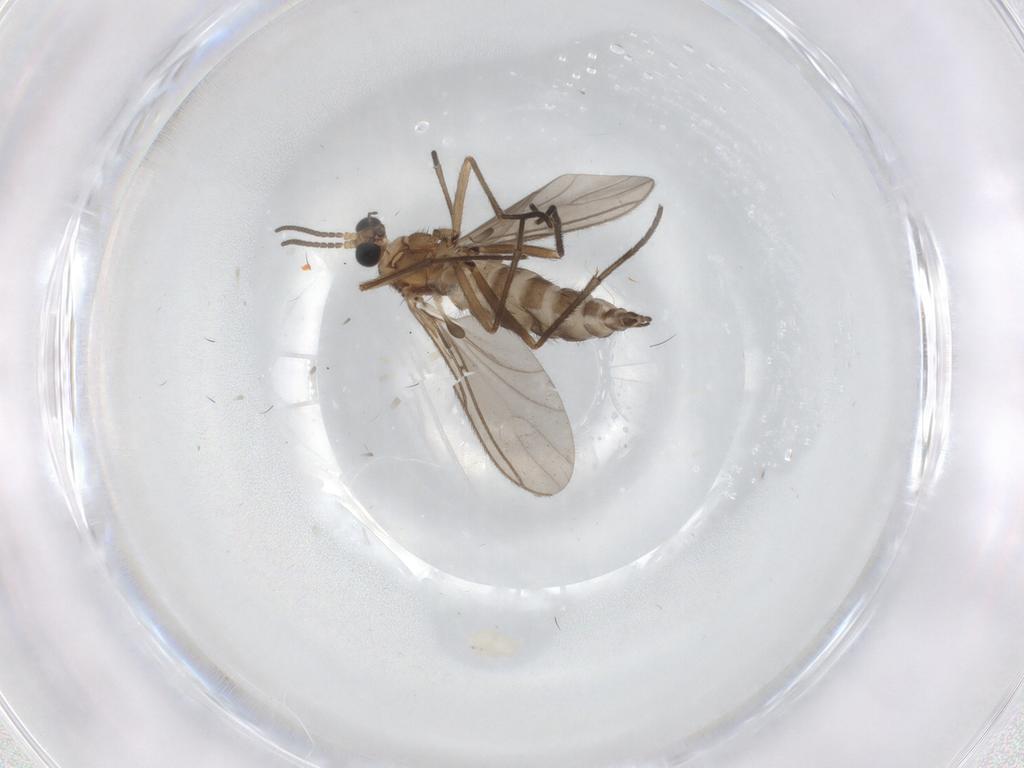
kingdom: Animalia
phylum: Arthropoda
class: Insecta
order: Diptera
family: Sciaridae
